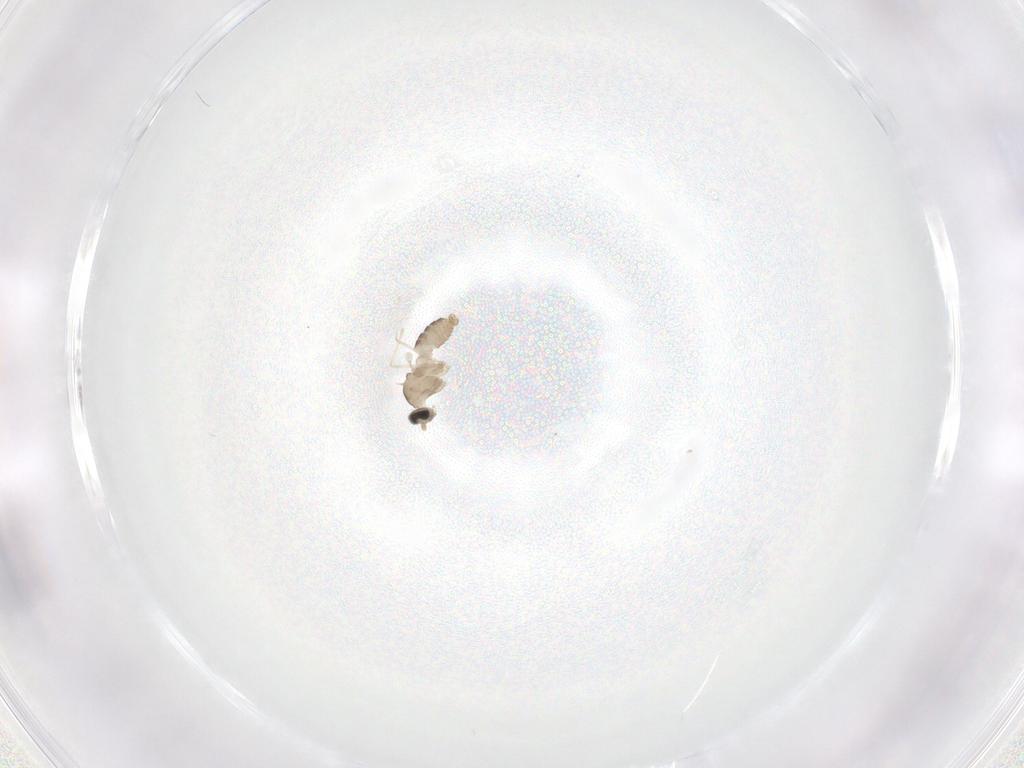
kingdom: Animalia
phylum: Arthropoda
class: Insecta
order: Diptera
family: Cecidomyiidae
